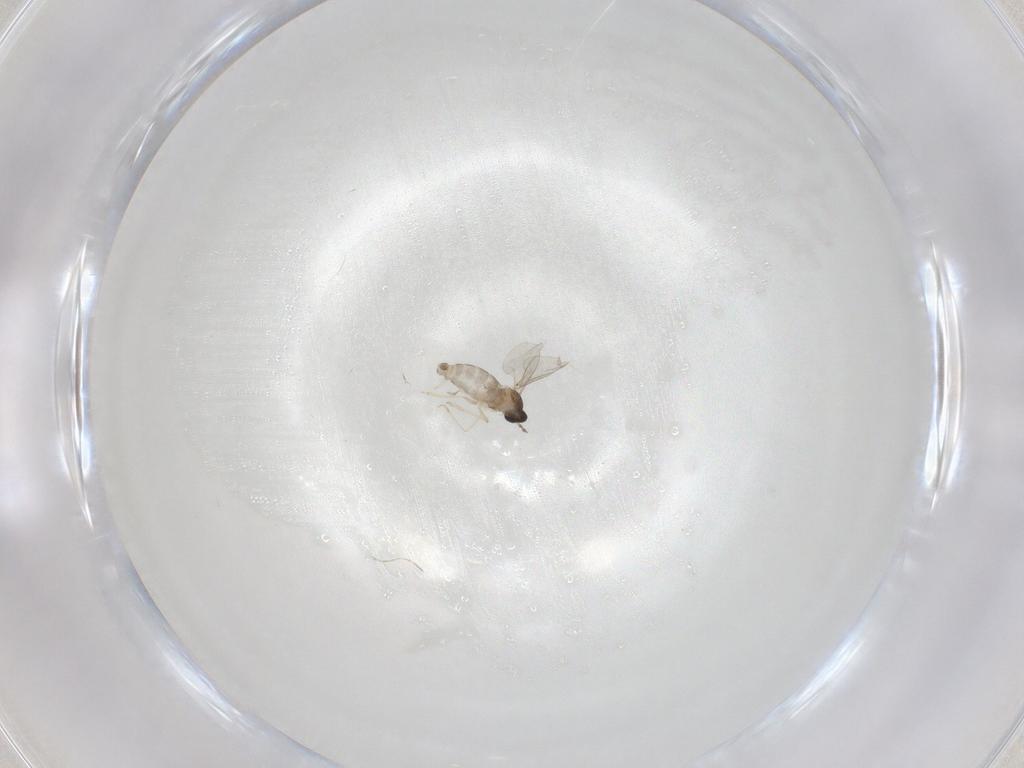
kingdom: Animalia
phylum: Arthropoda
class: Insecta
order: Diptera
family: Cecidomyiidae
